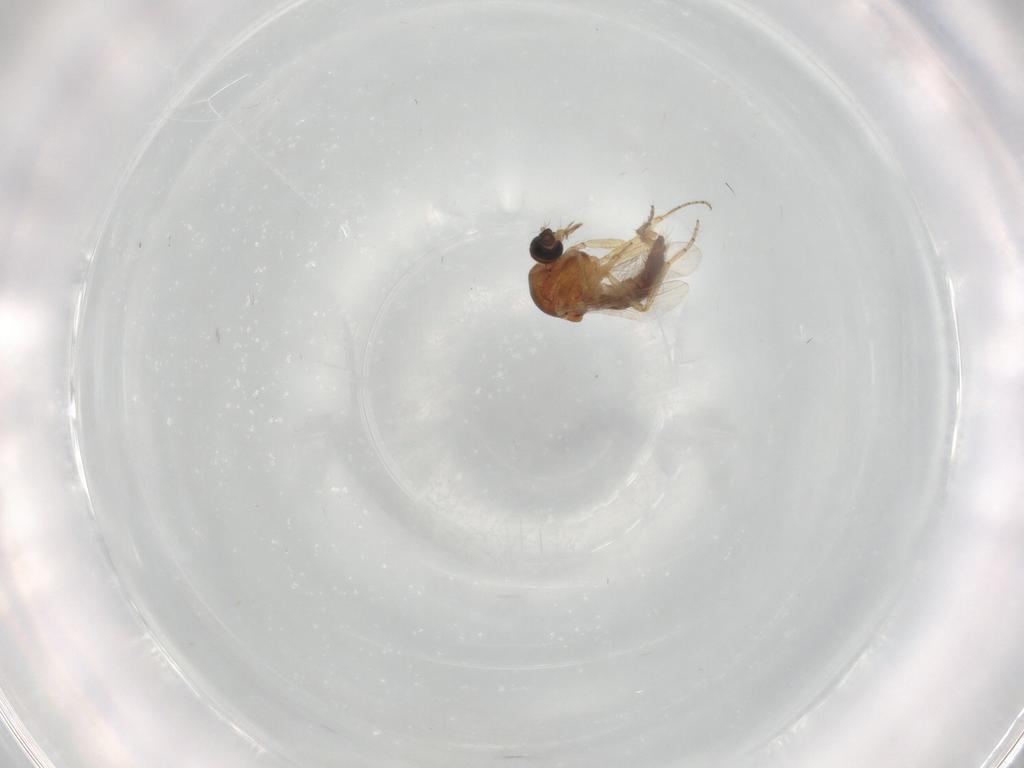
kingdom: Animalia
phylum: Arthropoda
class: Insecta
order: Diptera
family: Ceratopogonidae
